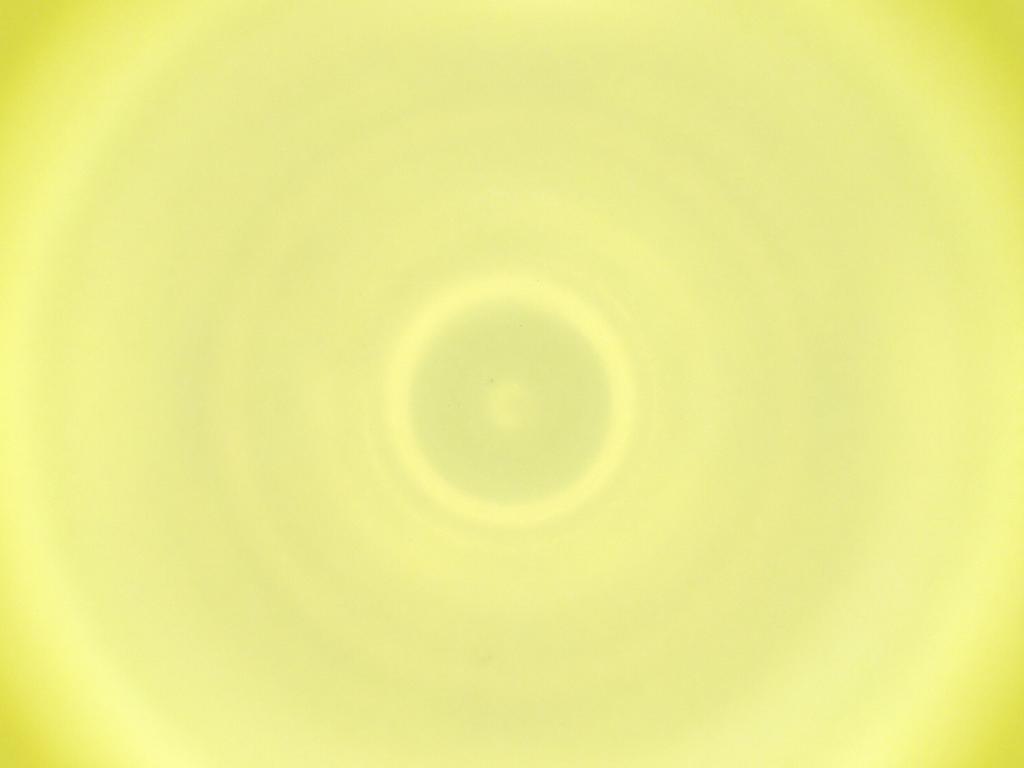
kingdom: Animalia
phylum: Arthropoda
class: Insecta
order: Diptera
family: Cecidomyiidae
